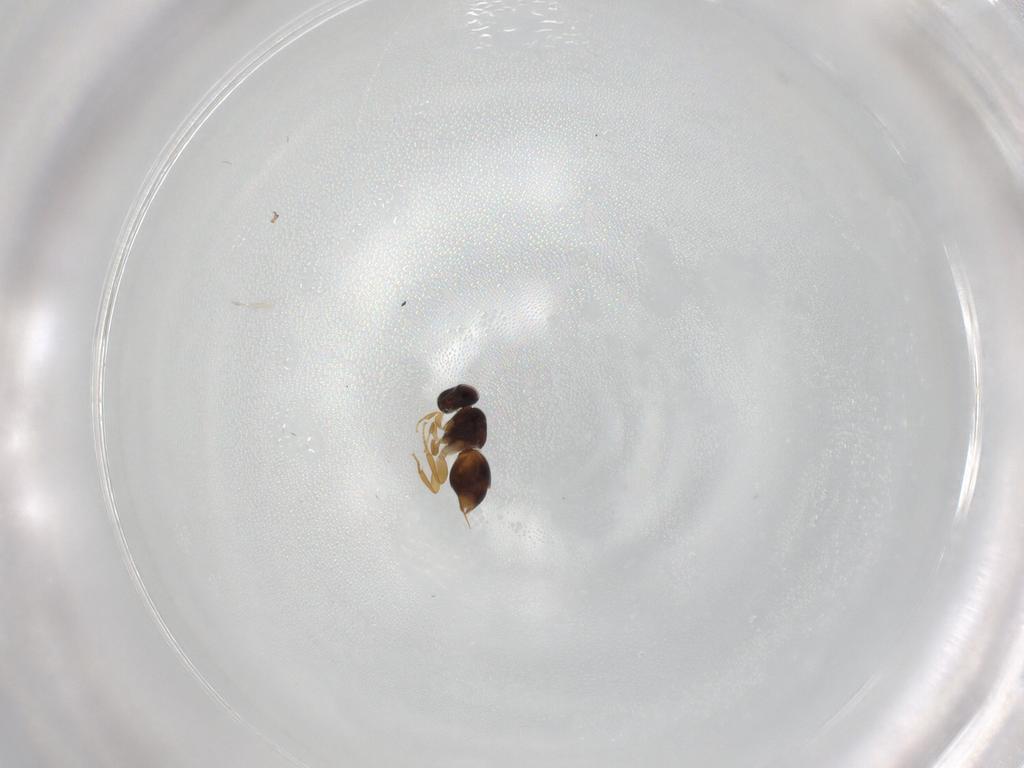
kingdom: Animalia
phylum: Arthropoda
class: Insecta
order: Hymenoptera
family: Ceraphronidae
